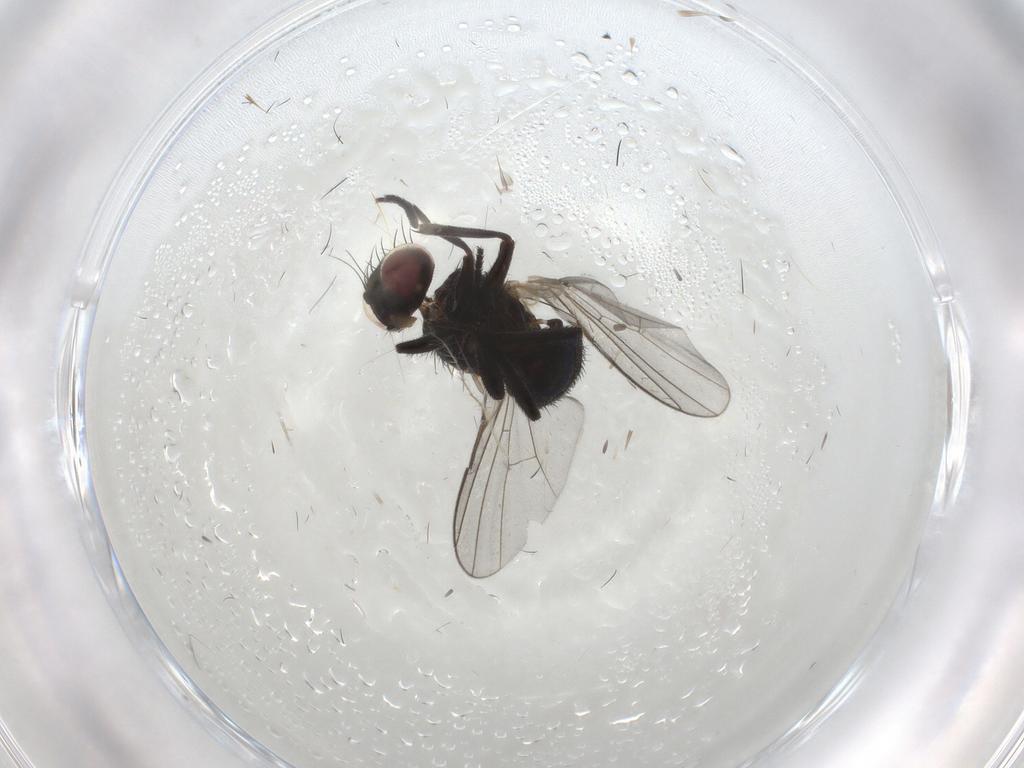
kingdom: Animalia
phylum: Arthropoda
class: Insecta
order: Diptera
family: Agromyzidae
